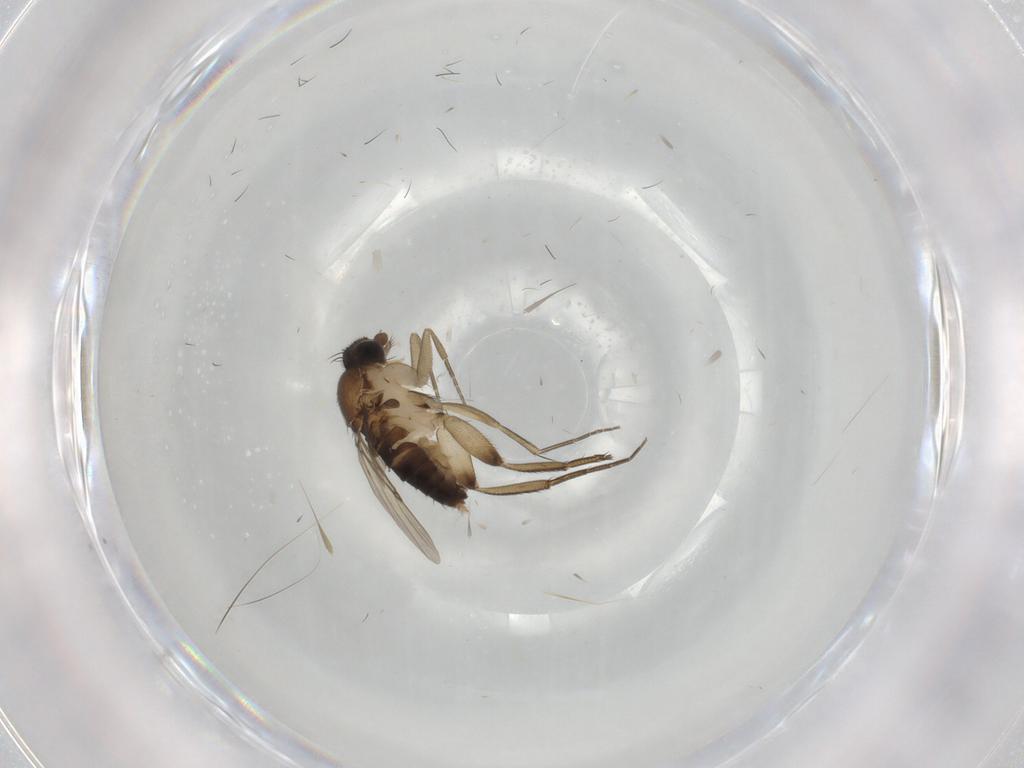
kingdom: Animalia
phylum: Arthropoda
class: Insecta
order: Diptera
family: Phoridae
